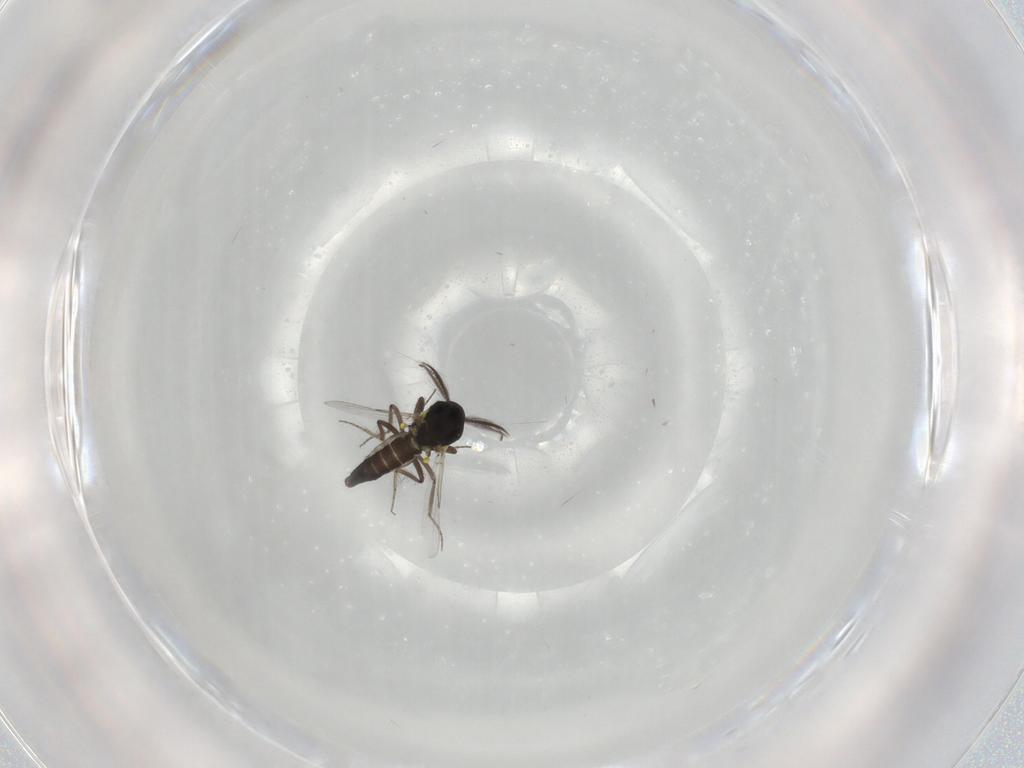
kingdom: Animalia
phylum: Arthropoda
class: Insecta
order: Diptera
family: Ceratopogonidae
